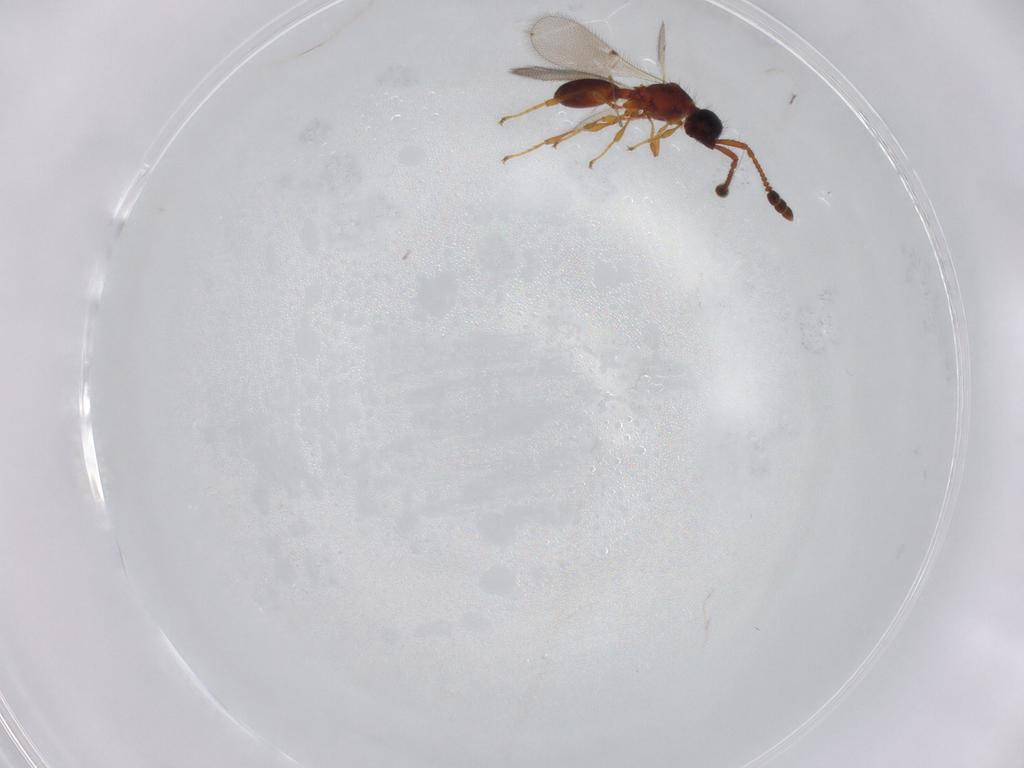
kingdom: Animalia
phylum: Arthropoda
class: Insecta
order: Hymenoptera
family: Diapriidae
